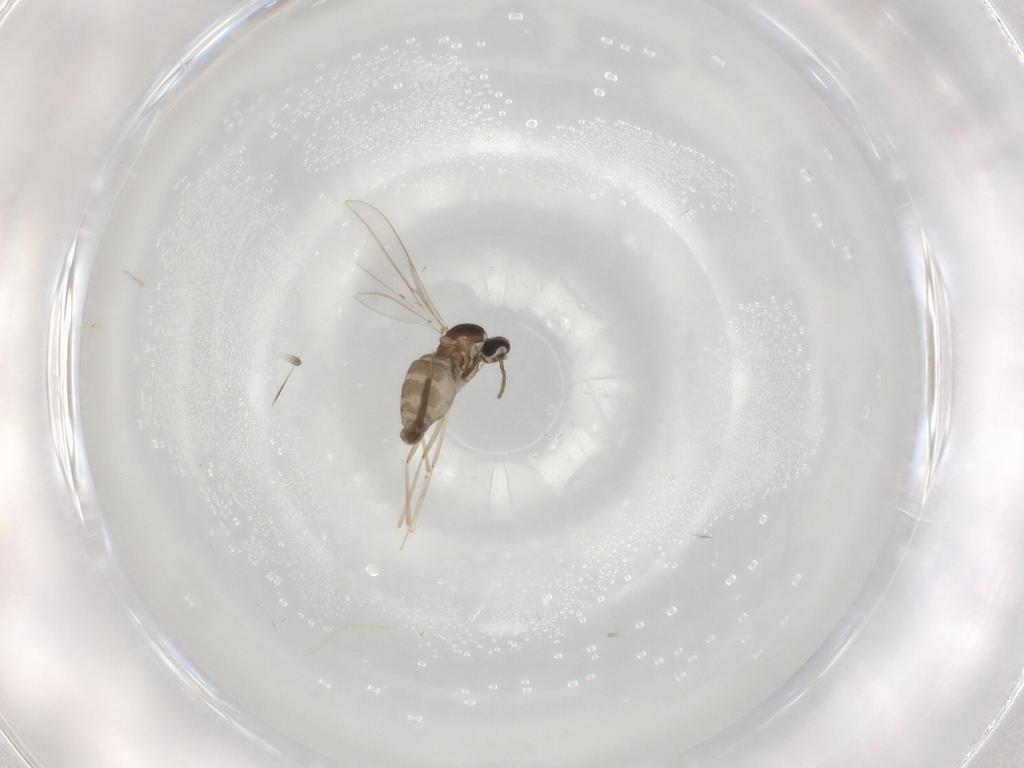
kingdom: Animalia
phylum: Arthropoda
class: Insecta
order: Diptera
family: Cecidomyiidae
